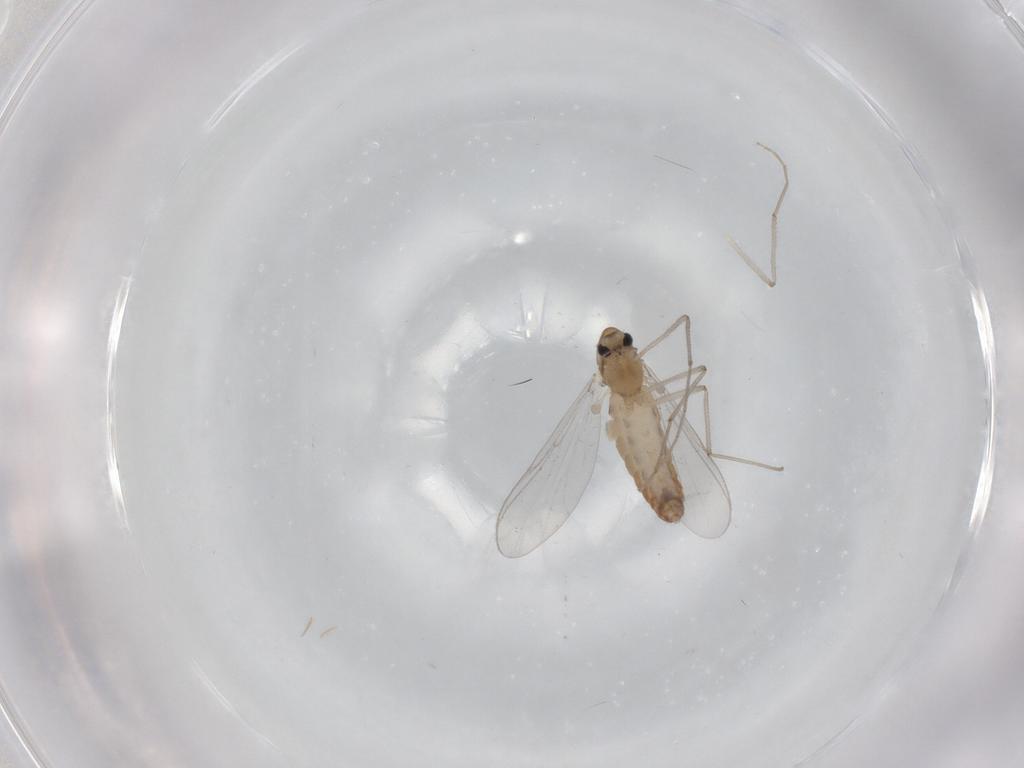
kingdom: Animalia
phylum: Arthropoda
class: Insecta
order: Diptera
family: Chironomidae
